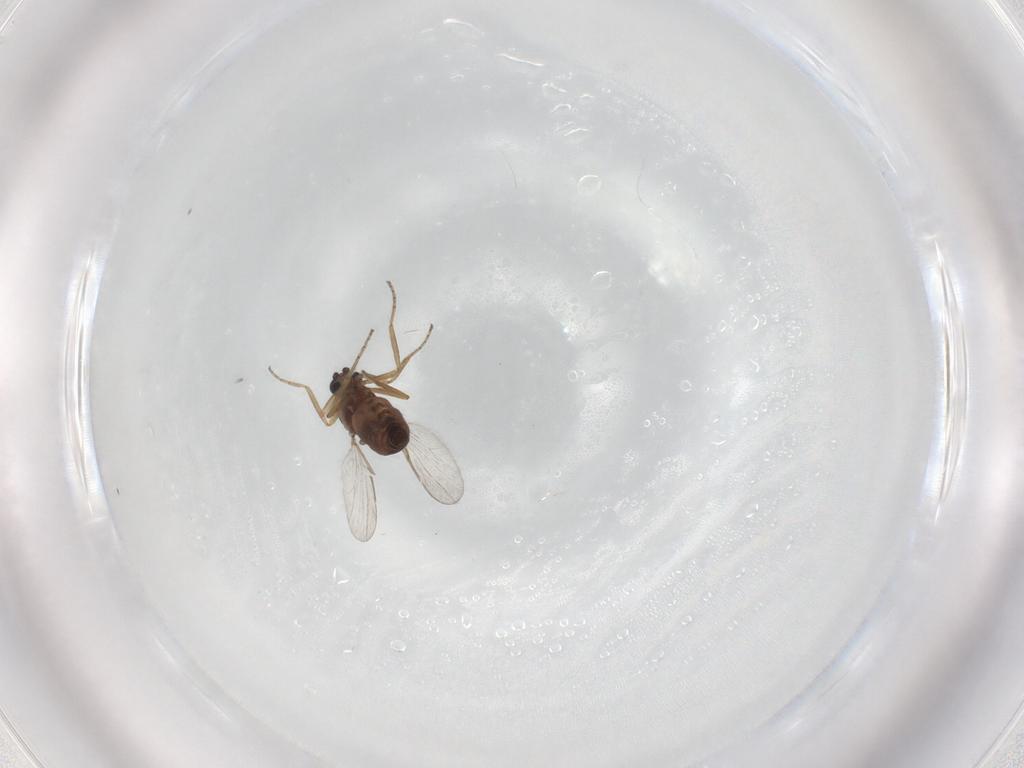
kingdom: Animalia
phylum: Arthropoda
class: Insecta
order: Diptera
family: Cecidomyiidae
